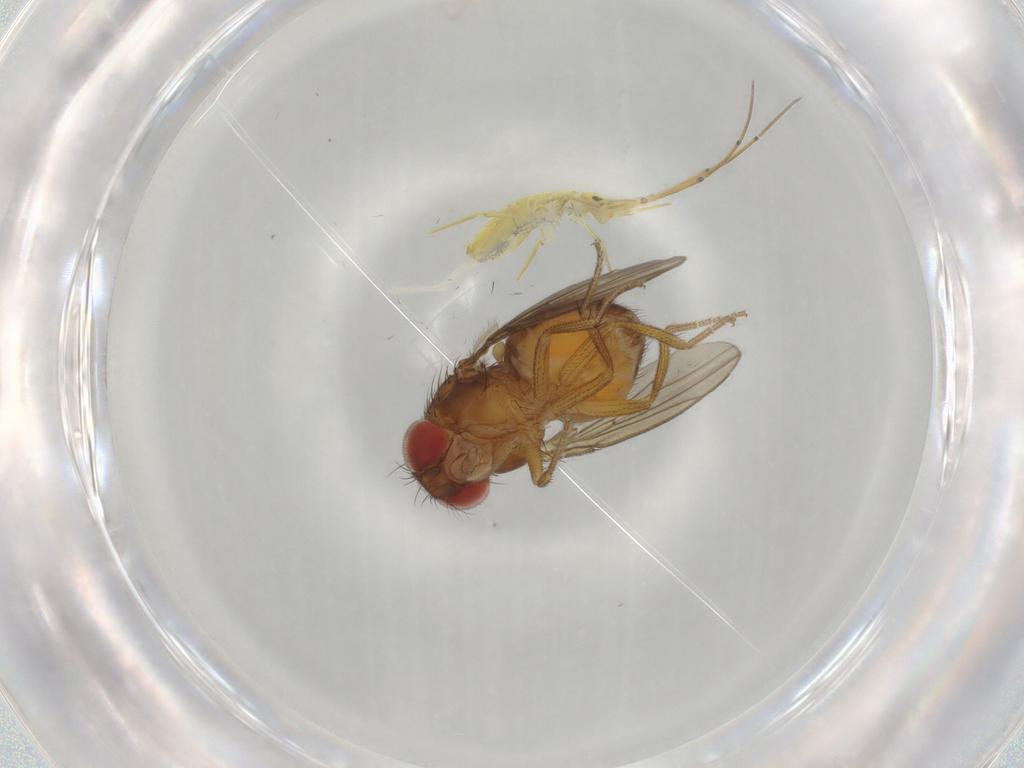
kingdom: Animalia
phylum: Arthropoda
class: Insecta
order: Diptera
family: Drosophilidae
